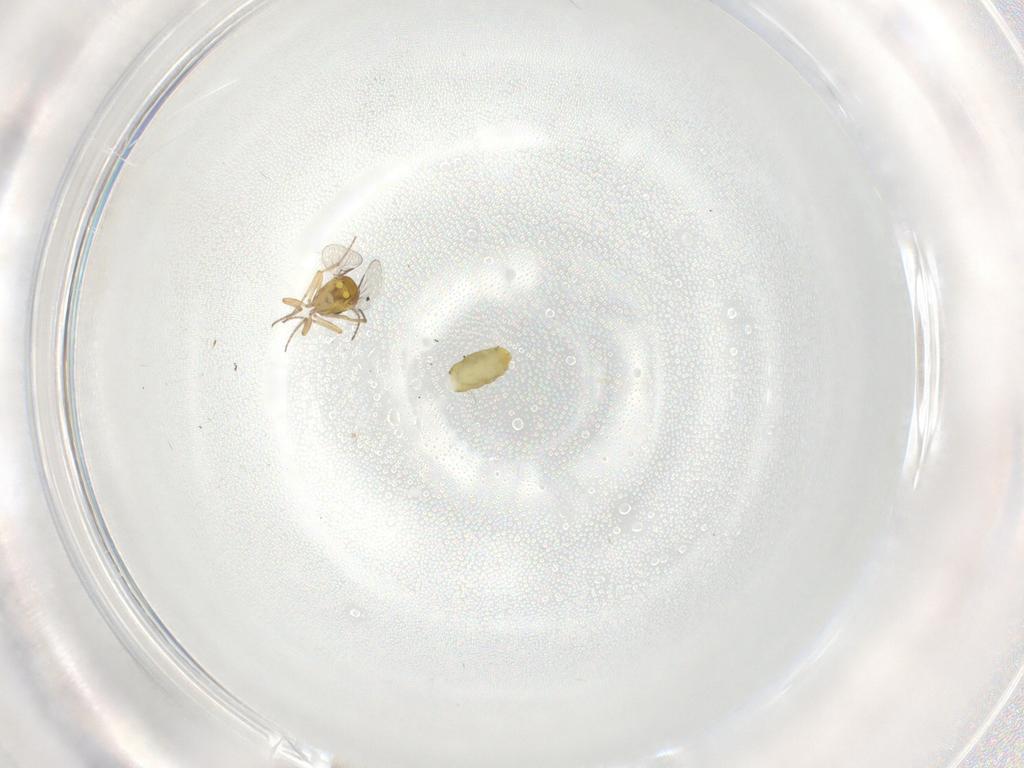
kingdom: Animalia
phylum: Arthropoda
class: Insecta
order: Diptera
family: Ceratopogonidae
